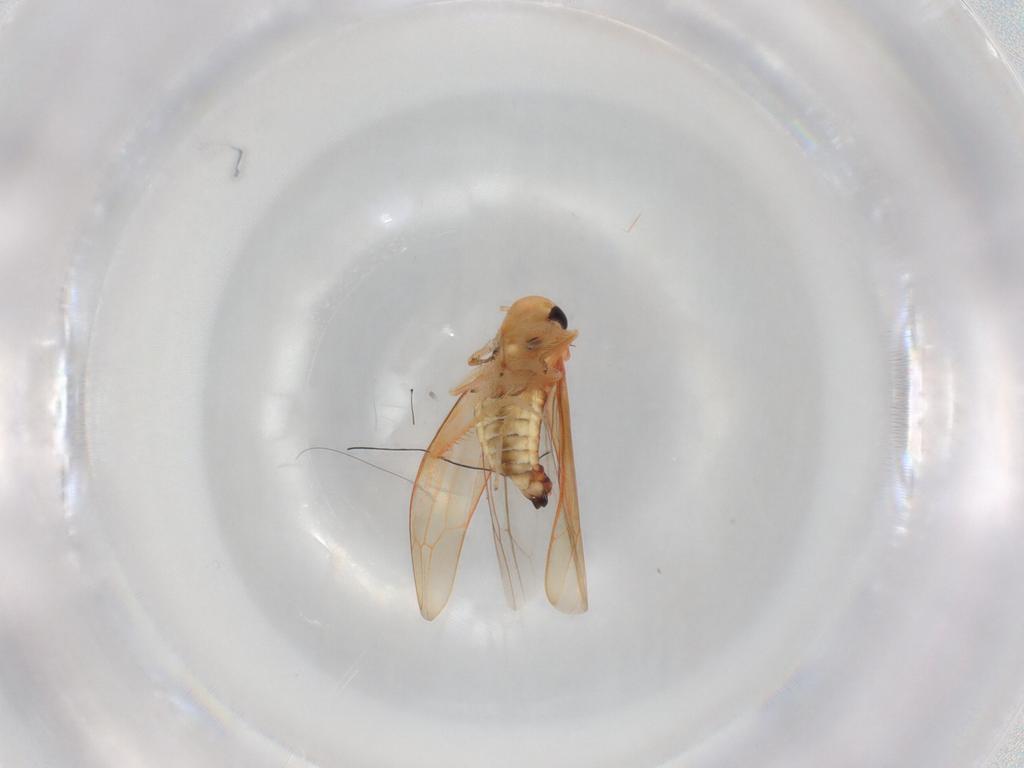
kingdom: Animalia
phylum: Arthropoda
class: Insecta
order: Hemiptera
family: Cicadellidae
